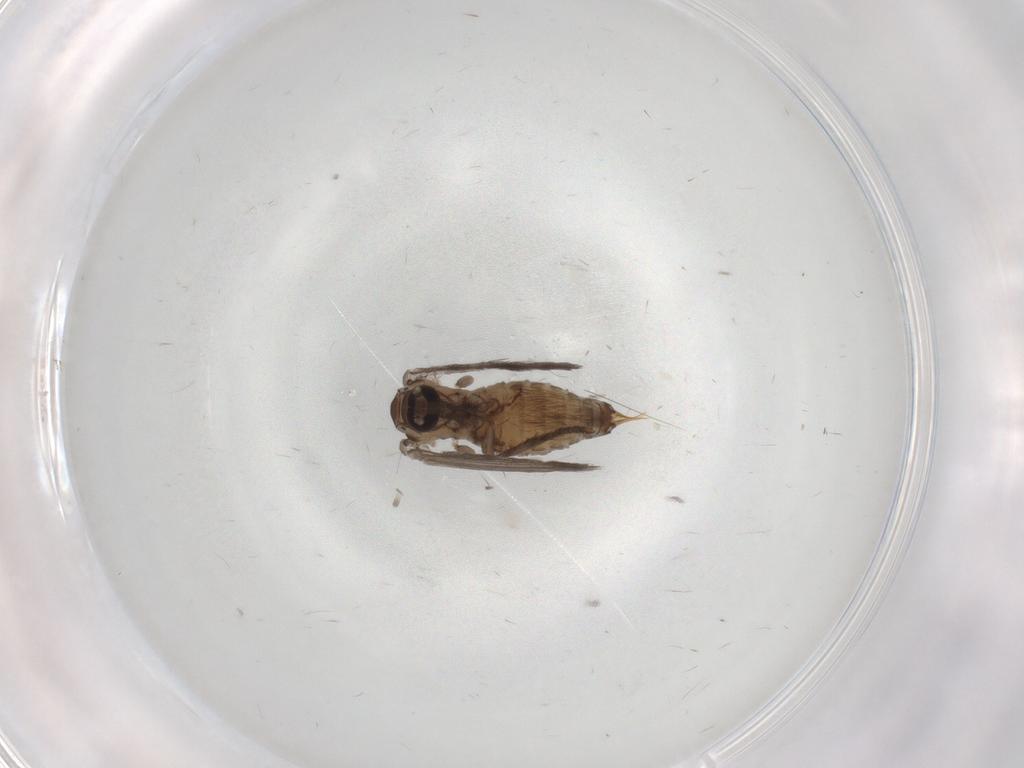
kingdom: Animalia
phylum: Arthropoda
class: Insecta
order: Diptera
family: Psychodidae
